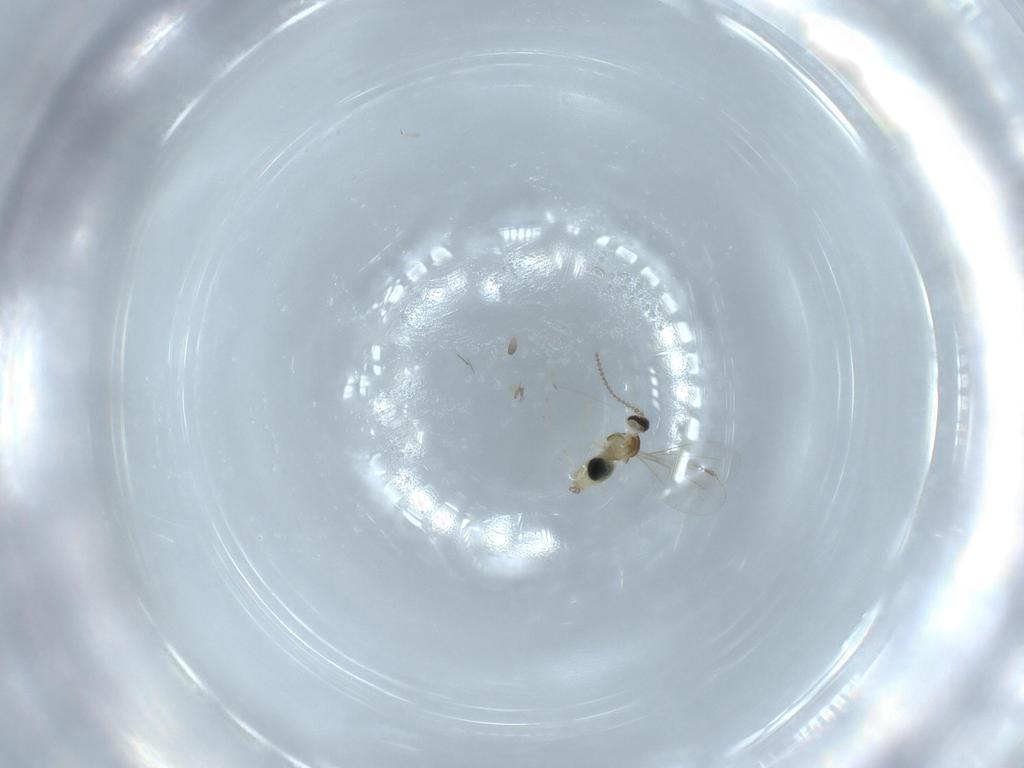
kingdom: Animalia
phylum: Arthropoda
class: Insecta
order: Diptera
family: Cecidomyiidae
